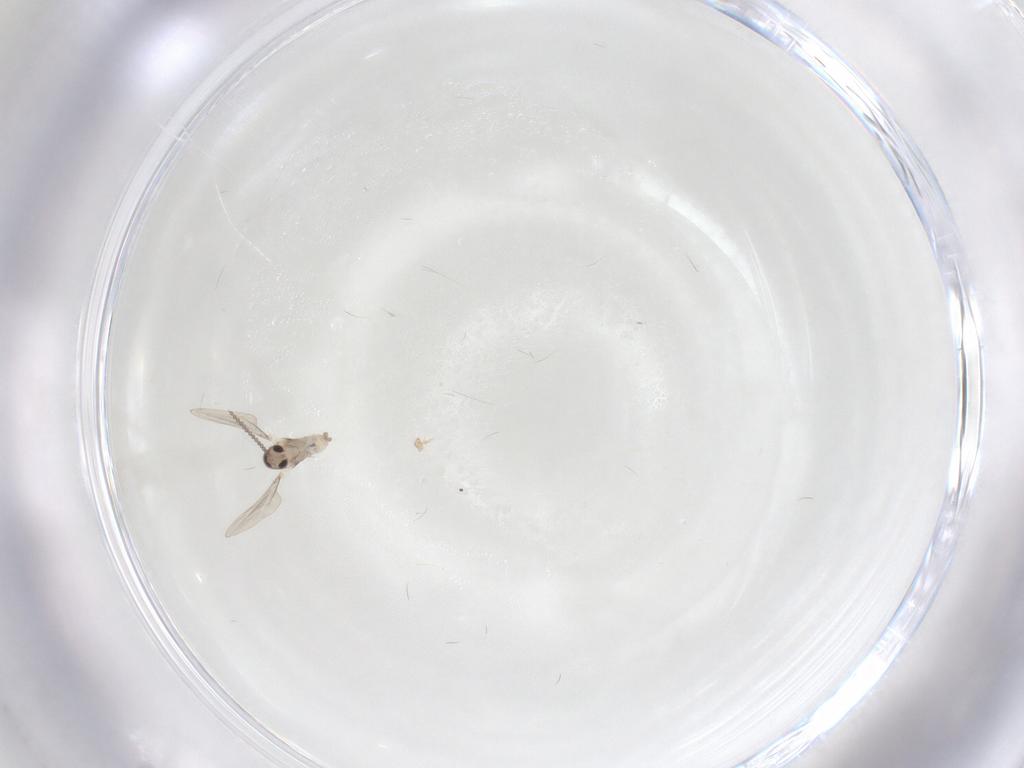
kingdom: Animalia
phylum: Arthropoda
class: Insecta
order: Diptera
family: Cecidomyiidae
